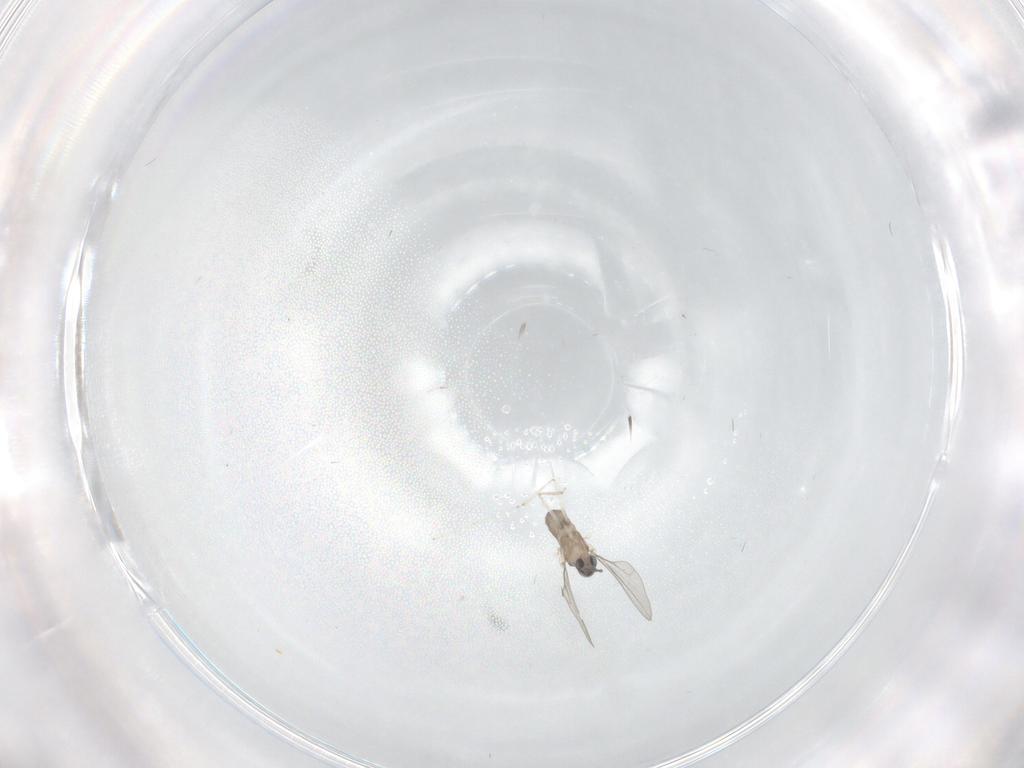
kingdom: Animalia
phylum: Arthropoda
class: Insecta
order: Diptera
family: Cecidomyiidae
